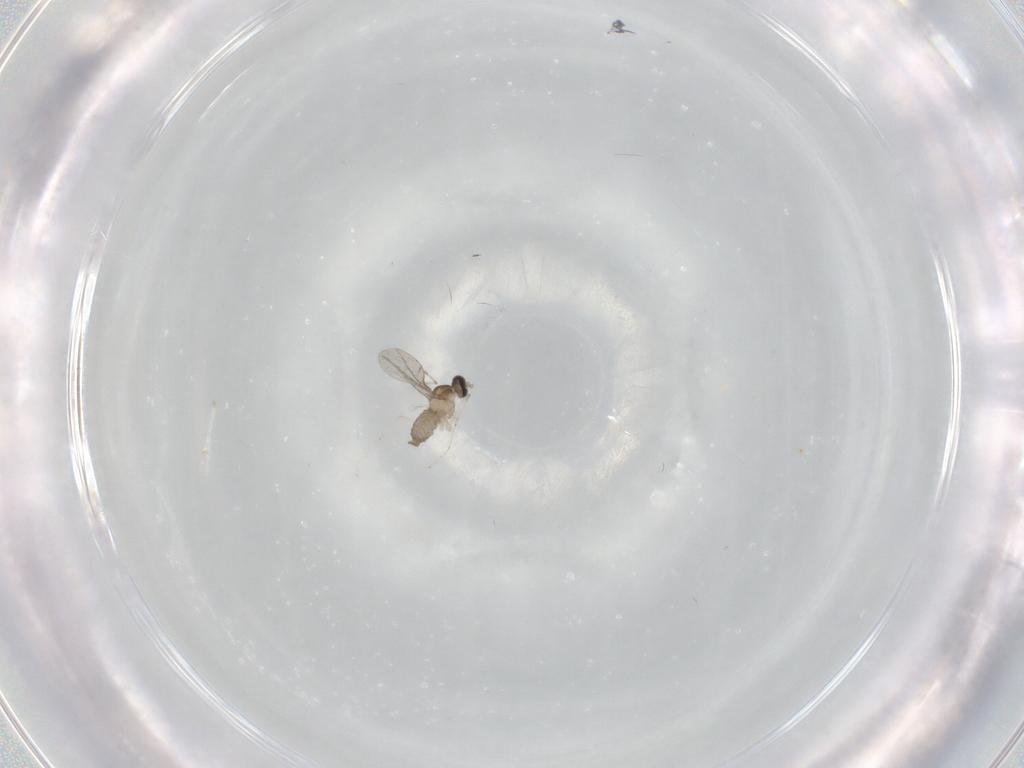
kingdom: Animalia
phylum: Arthropoda
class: Insecta
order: Diptera
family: Cecidomyiidae
